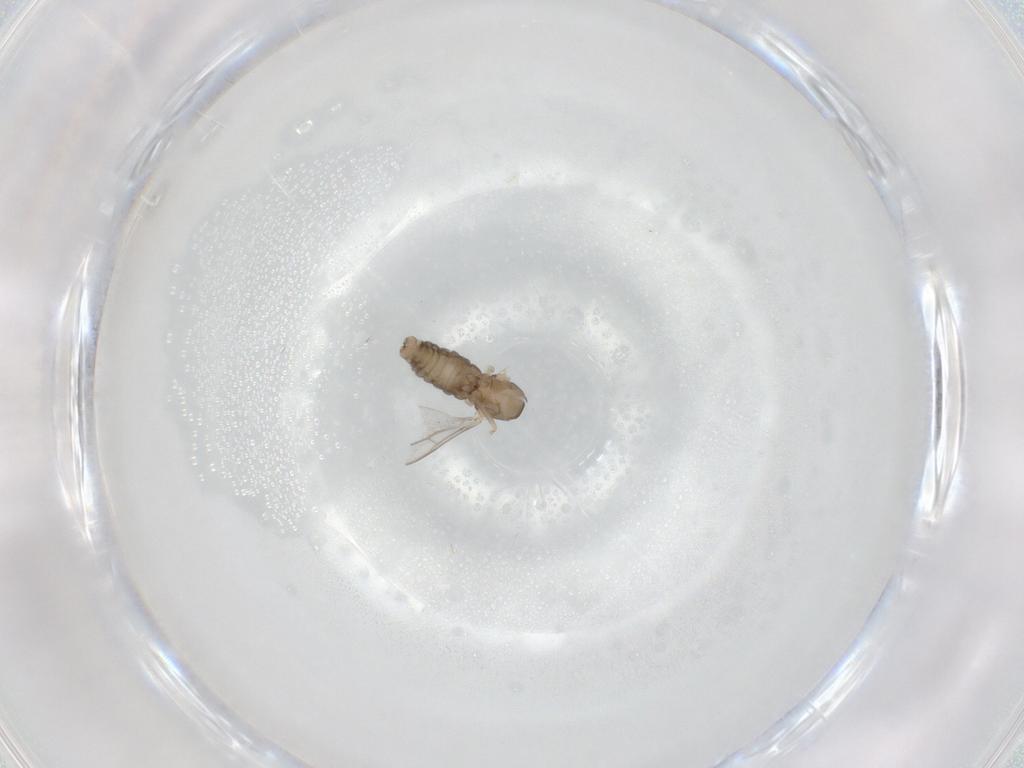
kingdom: Animalia
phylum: Arthropoda
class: Insecta
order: Diptera
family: Cecidomyiidae
